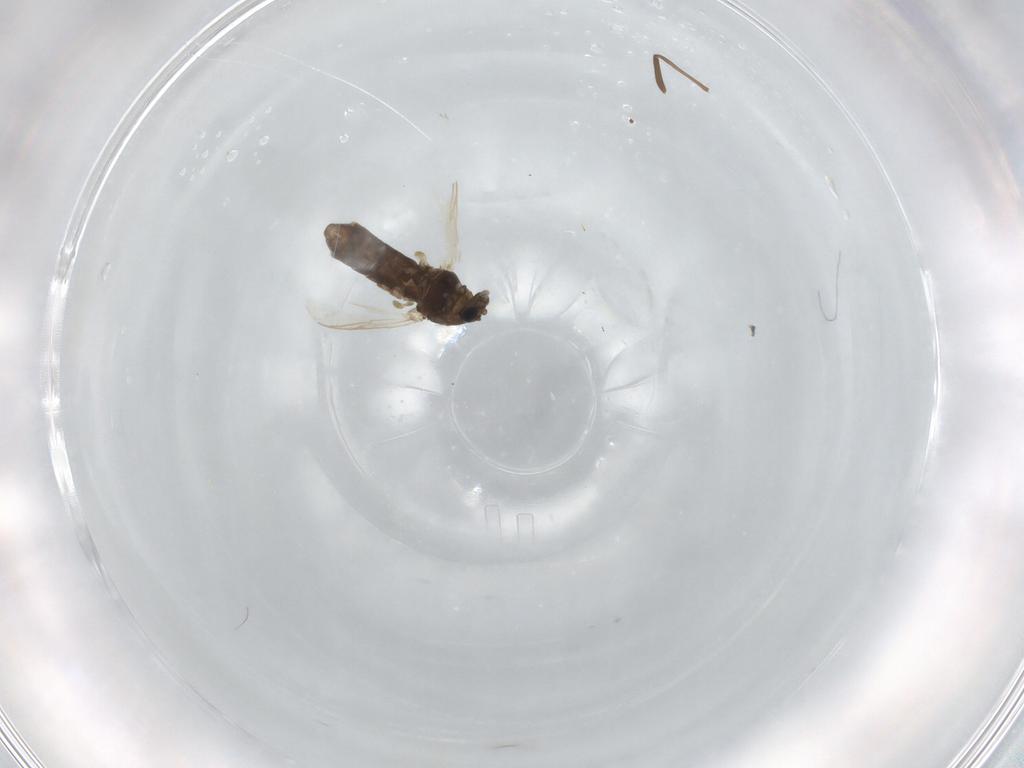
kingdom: Animalia
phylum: Arthropoda
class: Insecta
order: Diptera
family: Chironomidae
